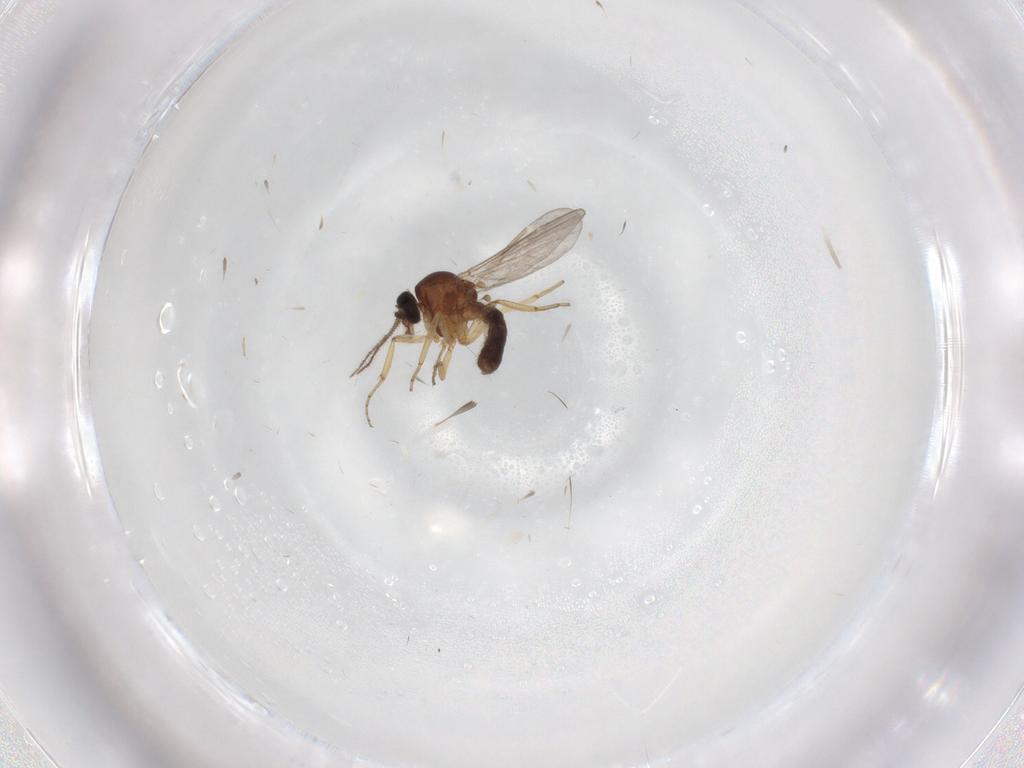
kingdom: Animalia
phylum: Arthropoda
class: Insecta
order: Diptera
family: Ceratopogonidae
